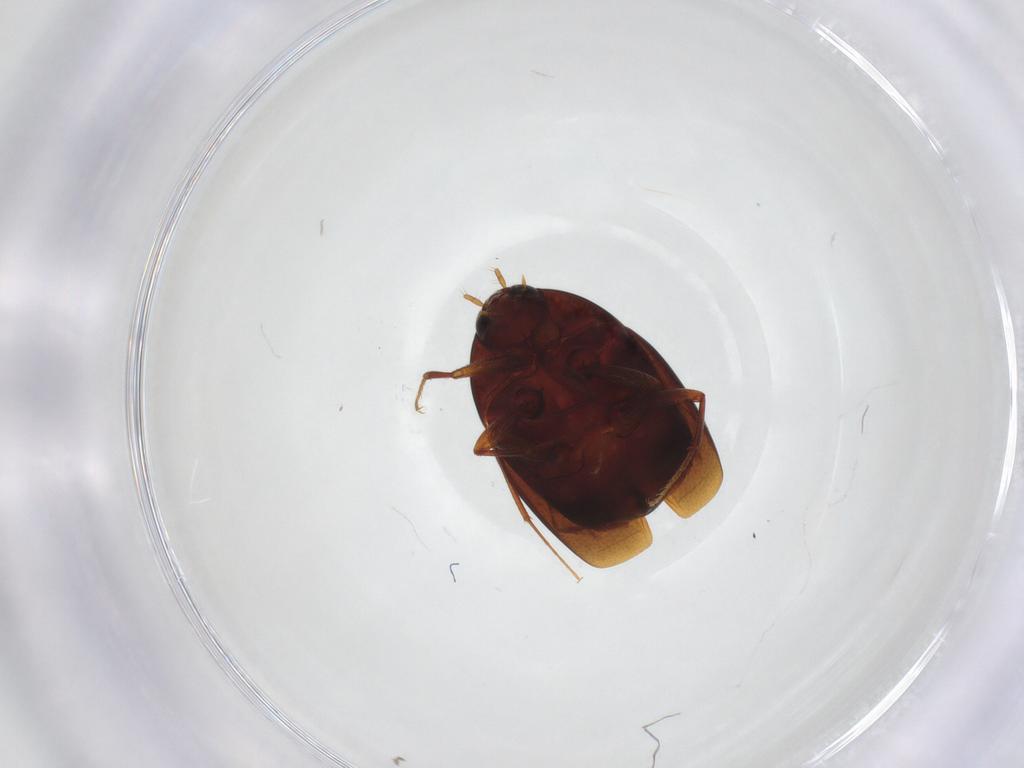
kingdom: Animalia
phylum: Arthropoda
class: Insecta
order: Coleoptera
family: Staphylinidae
